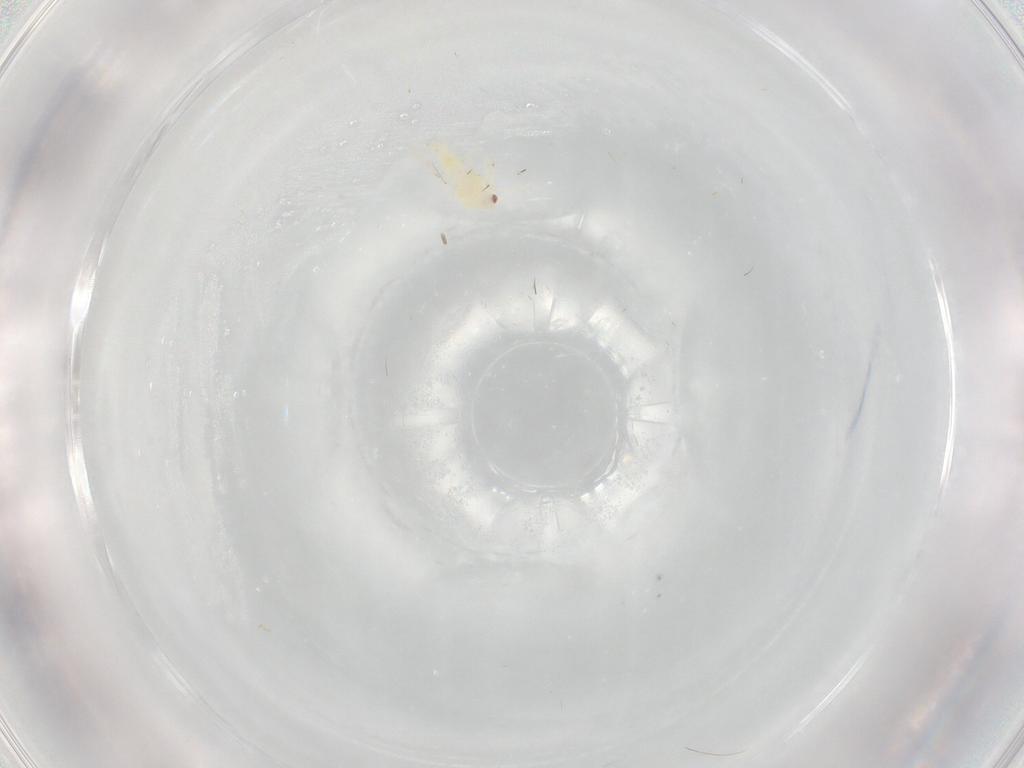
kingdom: Animalia
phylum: Arthropoda
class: Insecta
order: Hemiptera
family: Aleyrodidae
